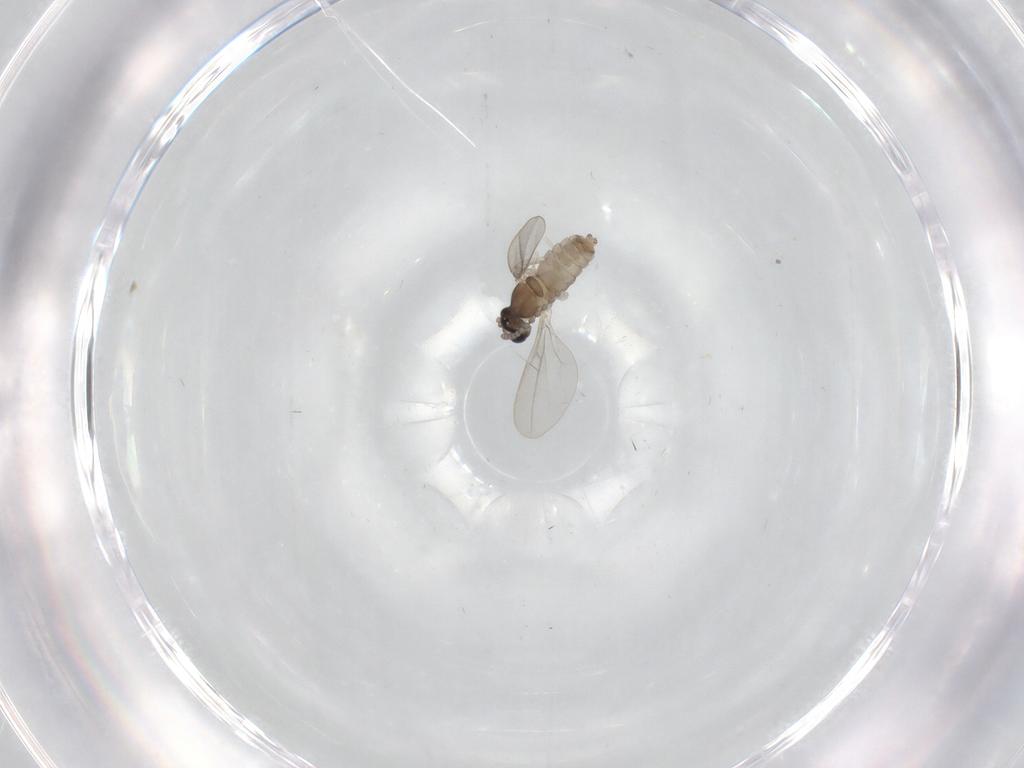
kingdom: Animalia
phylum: Arthropoda
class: Insecta
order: Diptera
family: Cecidomyiidae
